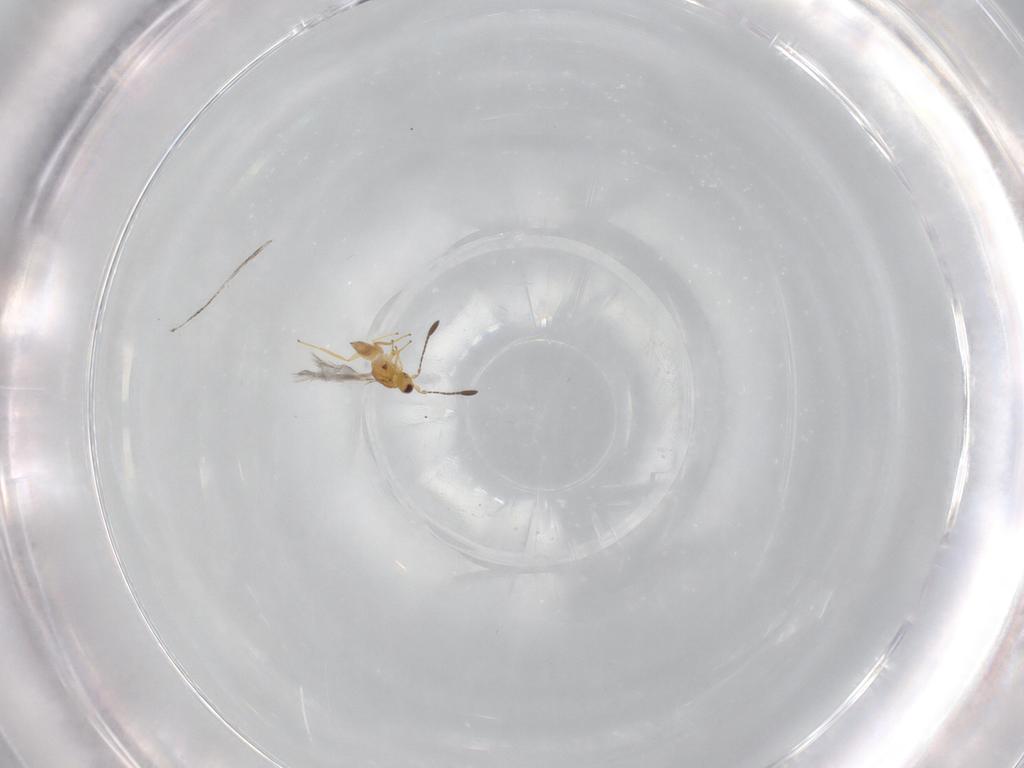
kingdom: Animalia
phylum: Arthropoda
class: Insecta
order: Hymenoptera
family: Mymaridae
